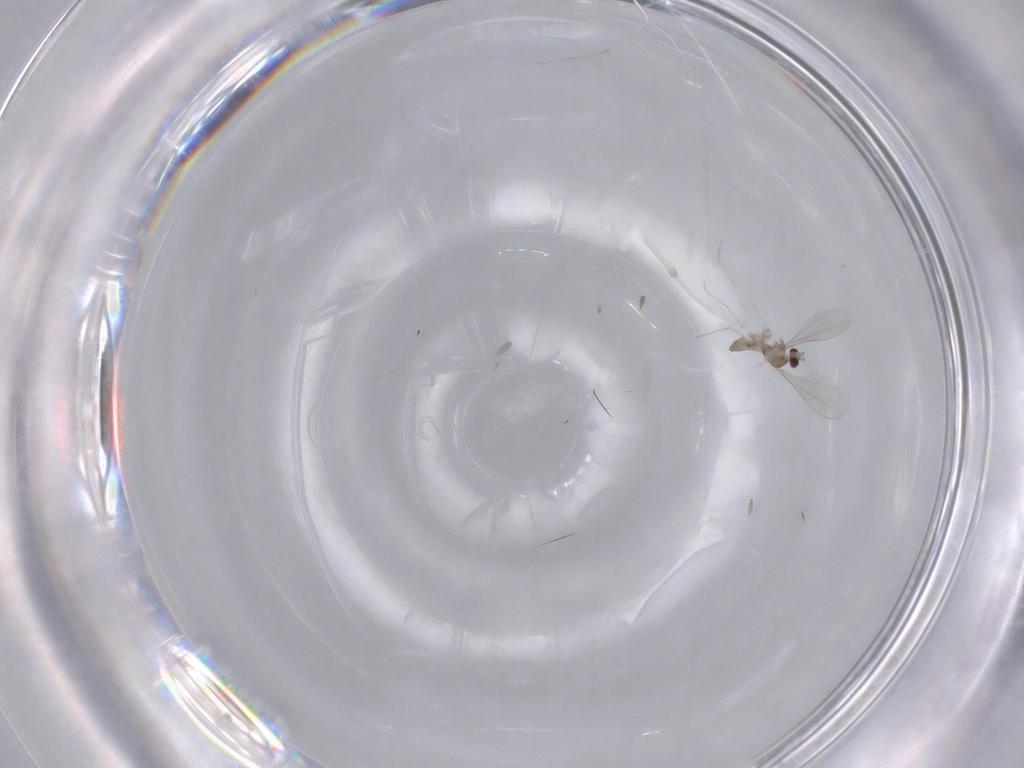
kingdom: Animalia
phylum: Arthropoda
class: Insecta
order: Diptera
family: Cecidomyiidae
